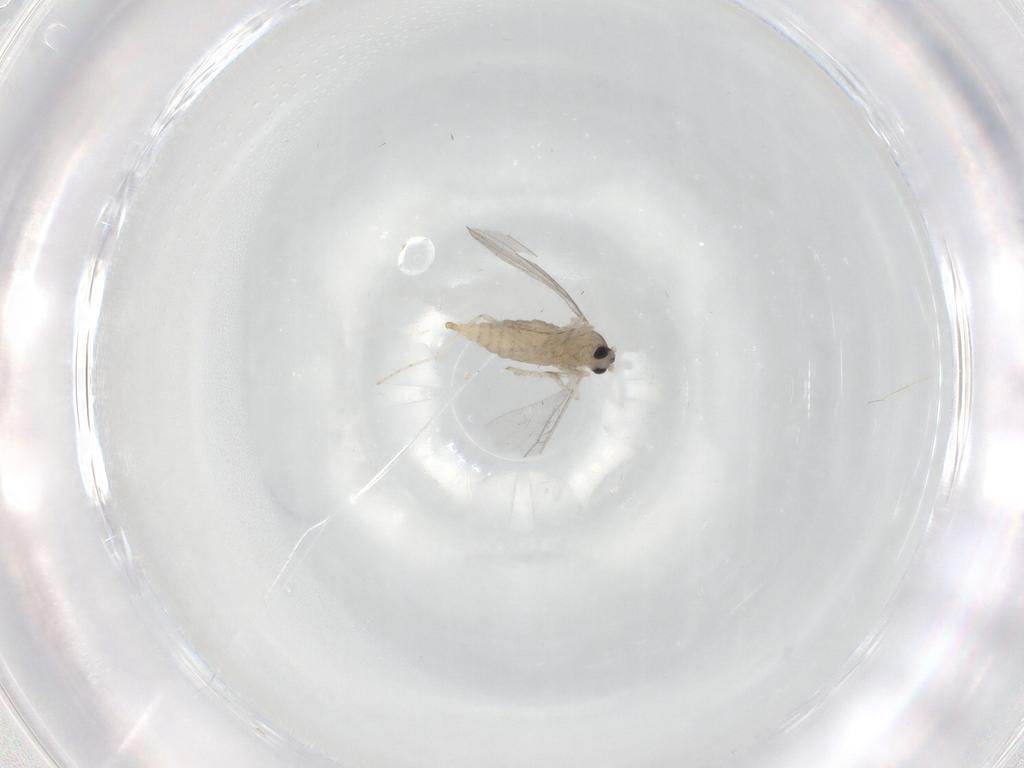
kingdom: Animalia
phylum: Arthropoda
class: Insecta
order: Diptera
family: Cecidomyiidae
